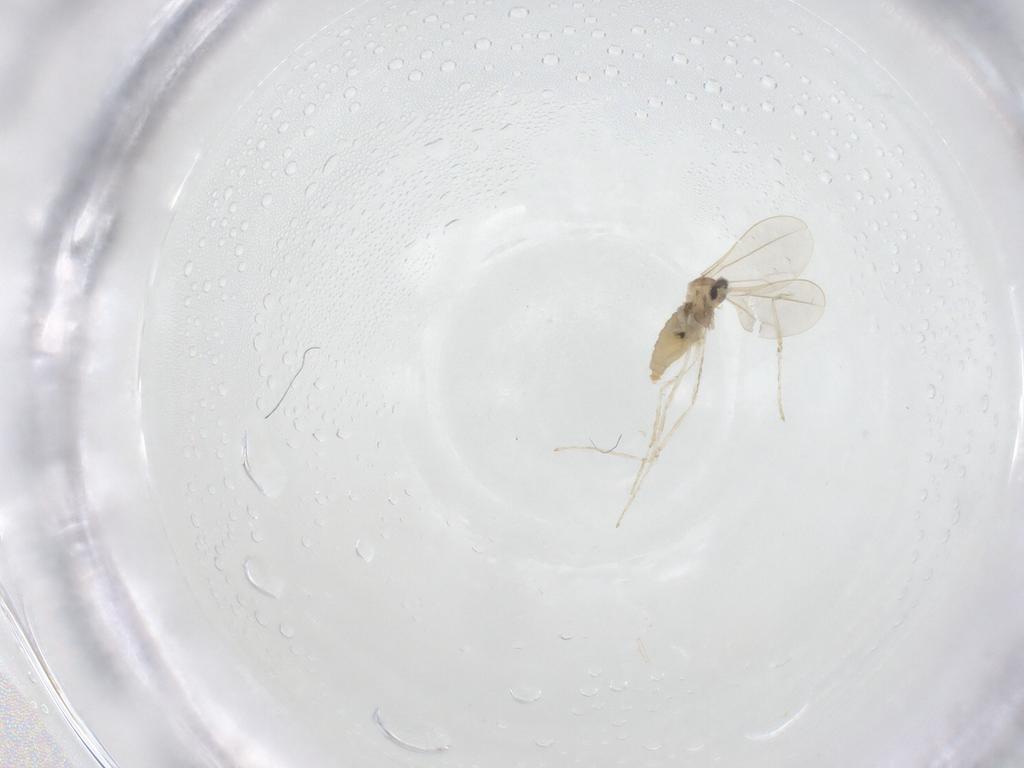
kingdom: Animalia
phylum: Arthropoda
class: Insecta
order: Diptera
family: Cecidomyiidae
